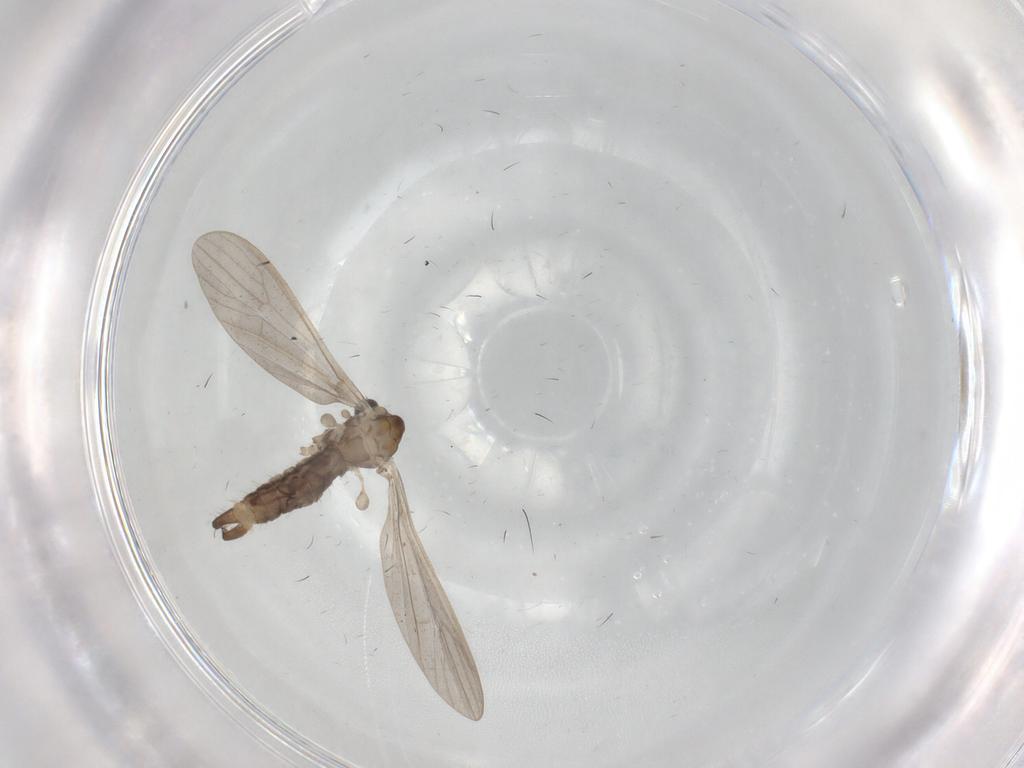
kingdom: Animalia
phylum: Arthropoda
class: Insecta
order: Diptera
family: Limoniidae
